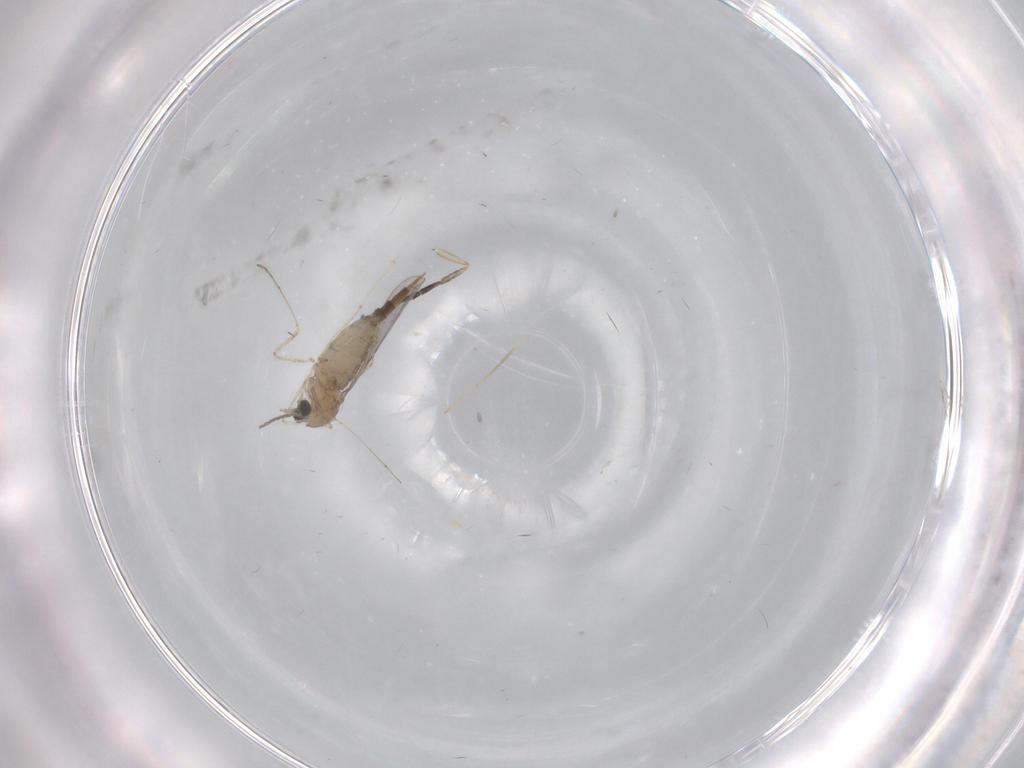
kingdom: Animalia
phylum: Arthropoda
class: Insecta
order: Diptera
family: Cecidomyiidae
